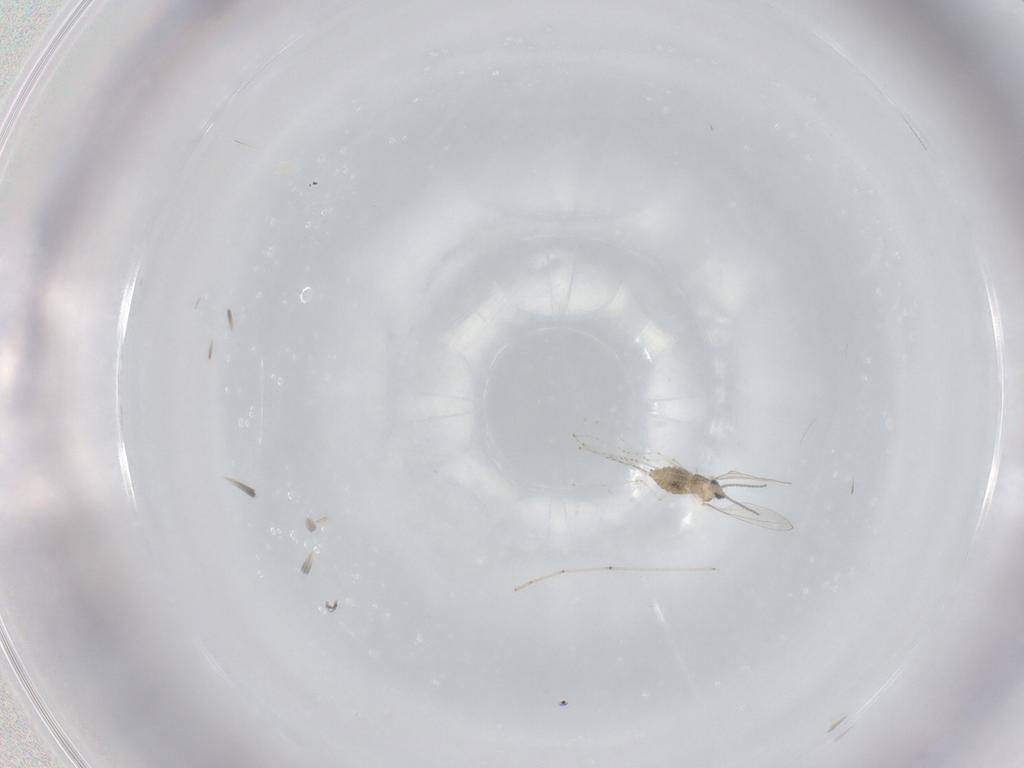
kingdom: Animalia
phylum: Arthropoda
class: Insecta
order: Diptera
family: Cecidomyiidae
